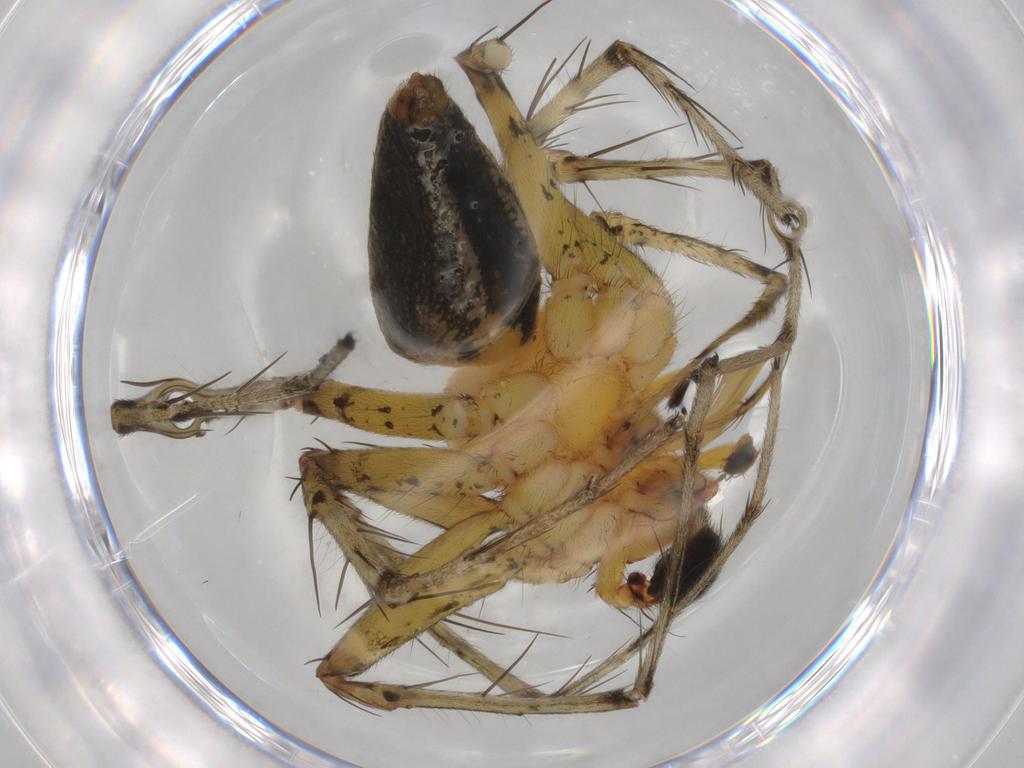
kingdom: Animalia
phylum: Arthropoda
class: Arachnida
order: Araneae
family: Oxyopidae
